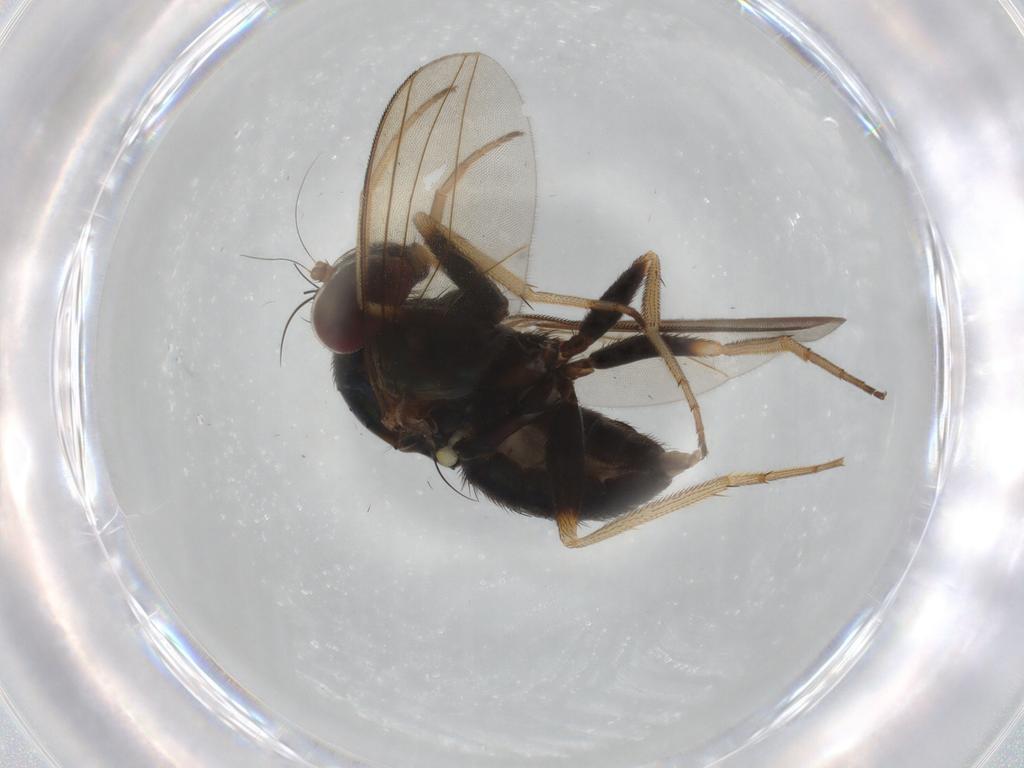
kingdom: Animalia
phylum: Arthropoda
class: Insecta
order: Diptera
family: Dolichopodidae
